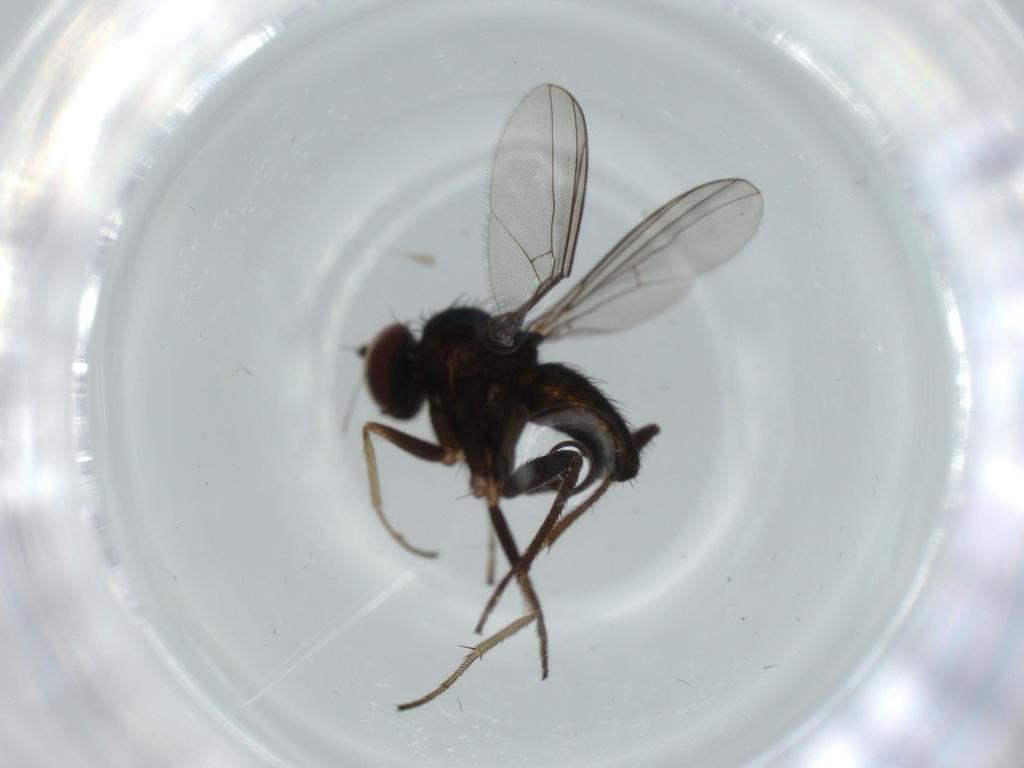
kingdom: Animalia
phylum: Arthropoda
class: Insecta
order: Diptera
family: Dolichopodidae
